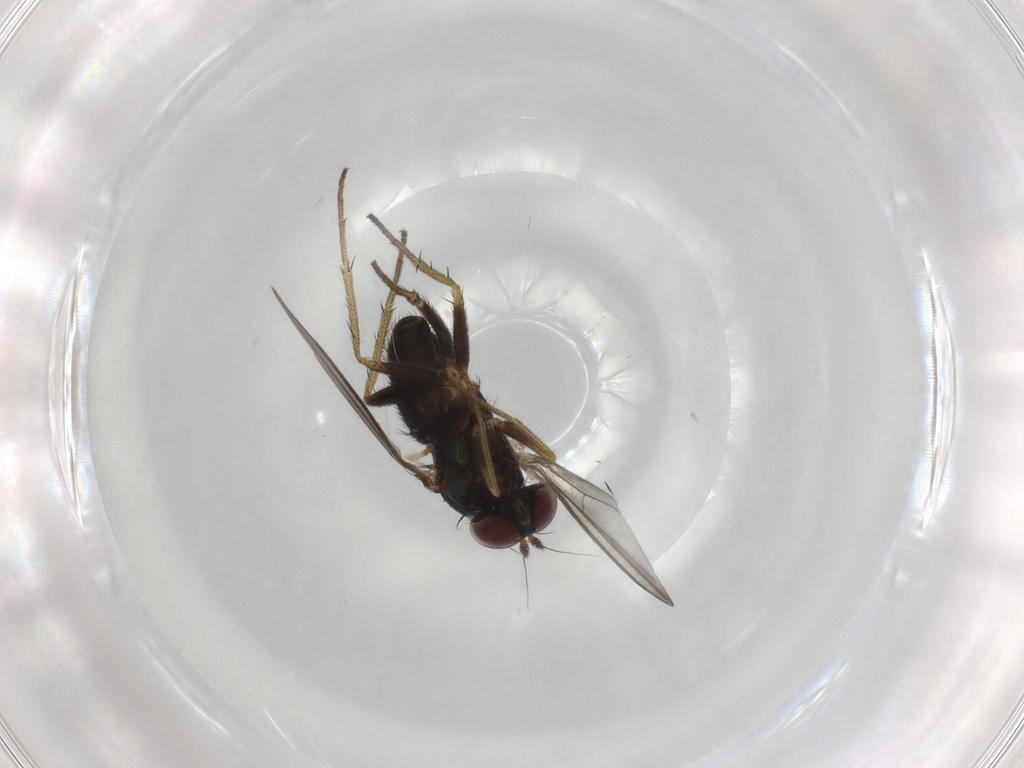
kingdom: Animalia
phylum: Arthropoda
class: Insecta
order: Diptera
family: Dolichopodidae
